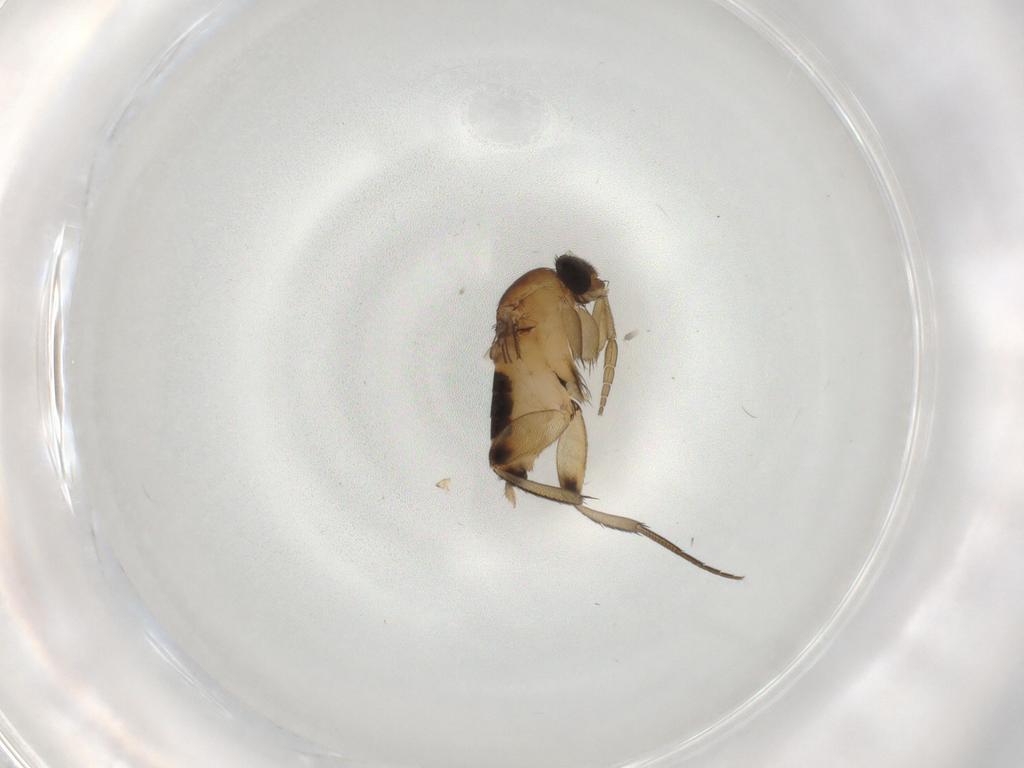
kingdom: Animalia
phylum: Arthropoda
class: Insecta
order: Diptera
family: Phoridae
